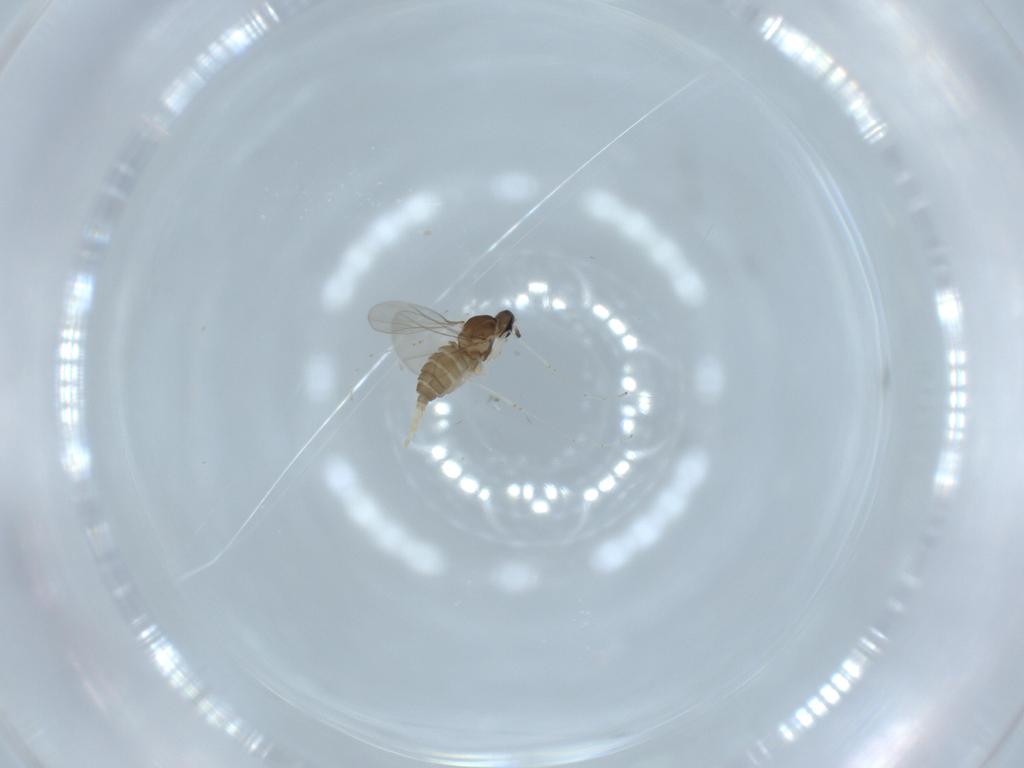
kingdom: Animalia
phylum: Arthropoda
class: Insecta
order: Diptera
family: Cecidomyiidae
